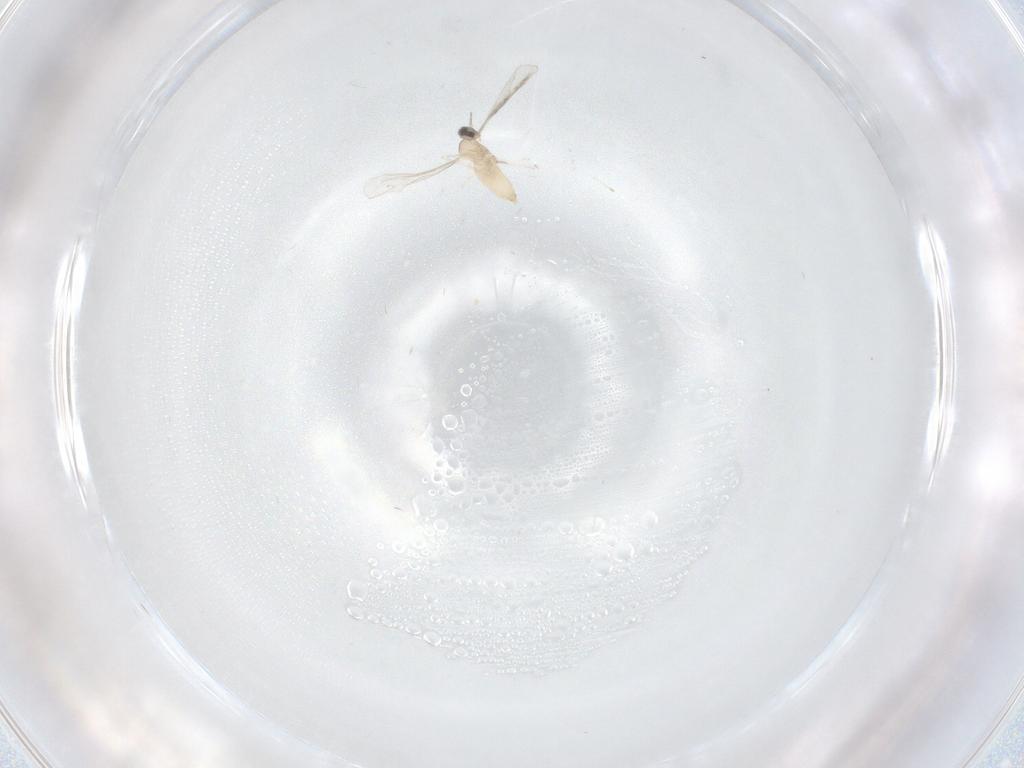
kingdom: Animalia
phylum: Arthropoda
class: Insecta
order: Diptera
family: Cecidomyiidae
